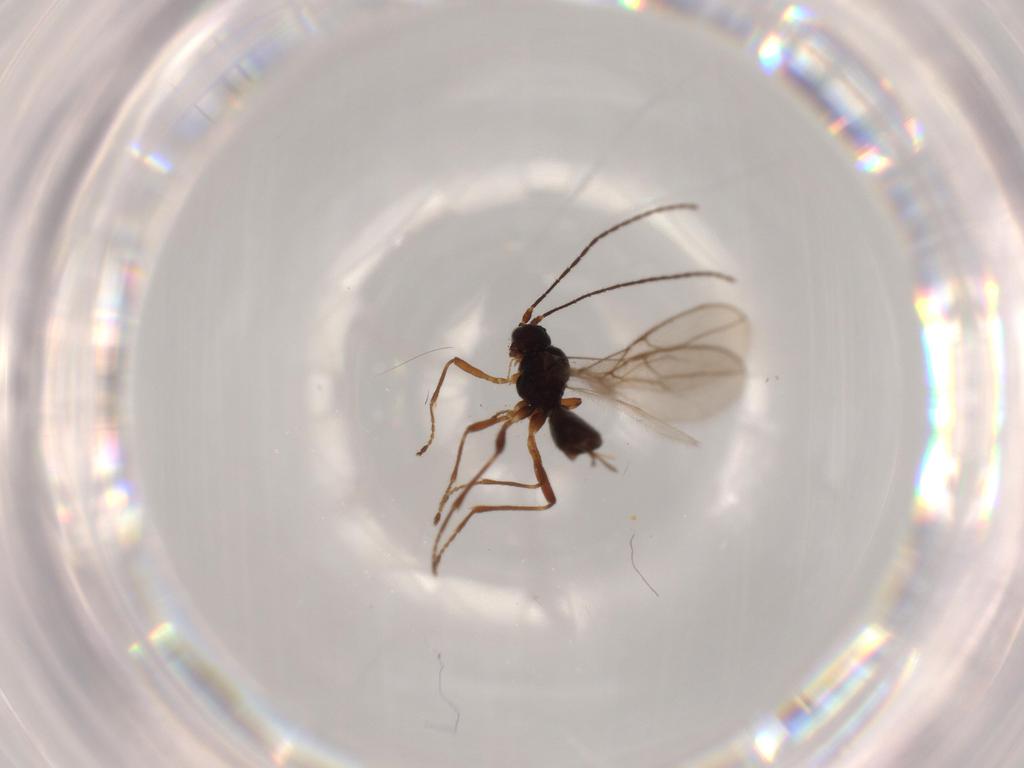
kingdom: Animalia
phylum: Arthropoda
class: Insecta
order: Hymenoptera
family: Braconidae
